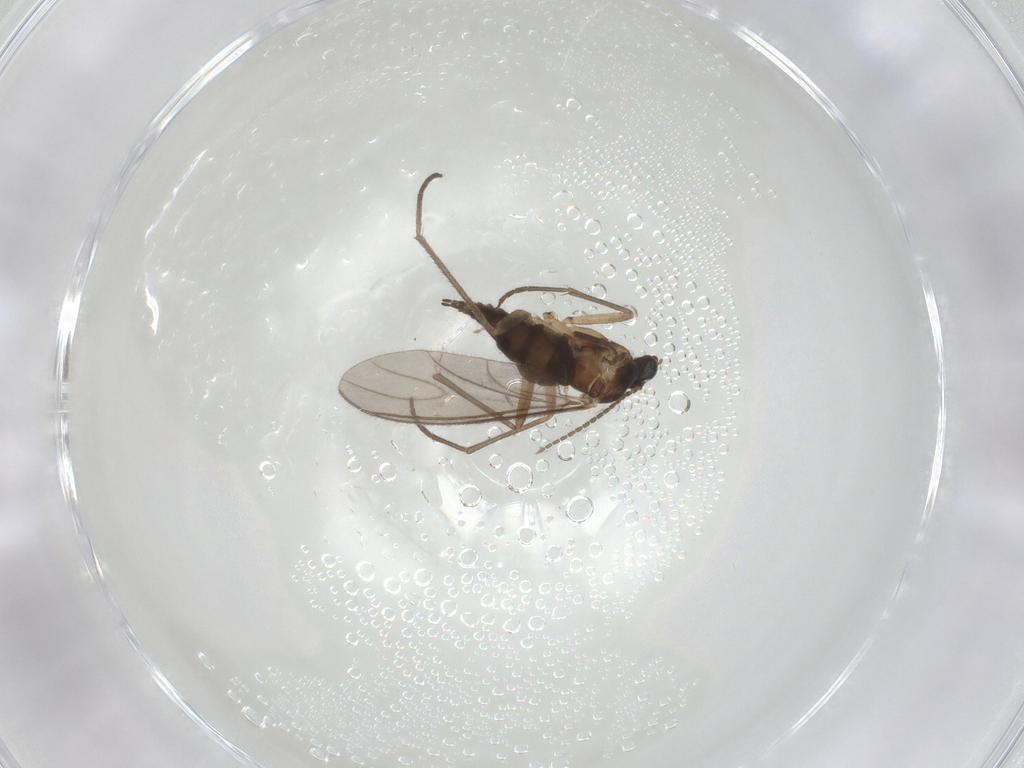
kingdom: Animalia
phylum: Arthropoda
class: Insecta
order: Diptera
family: Sciaridae
